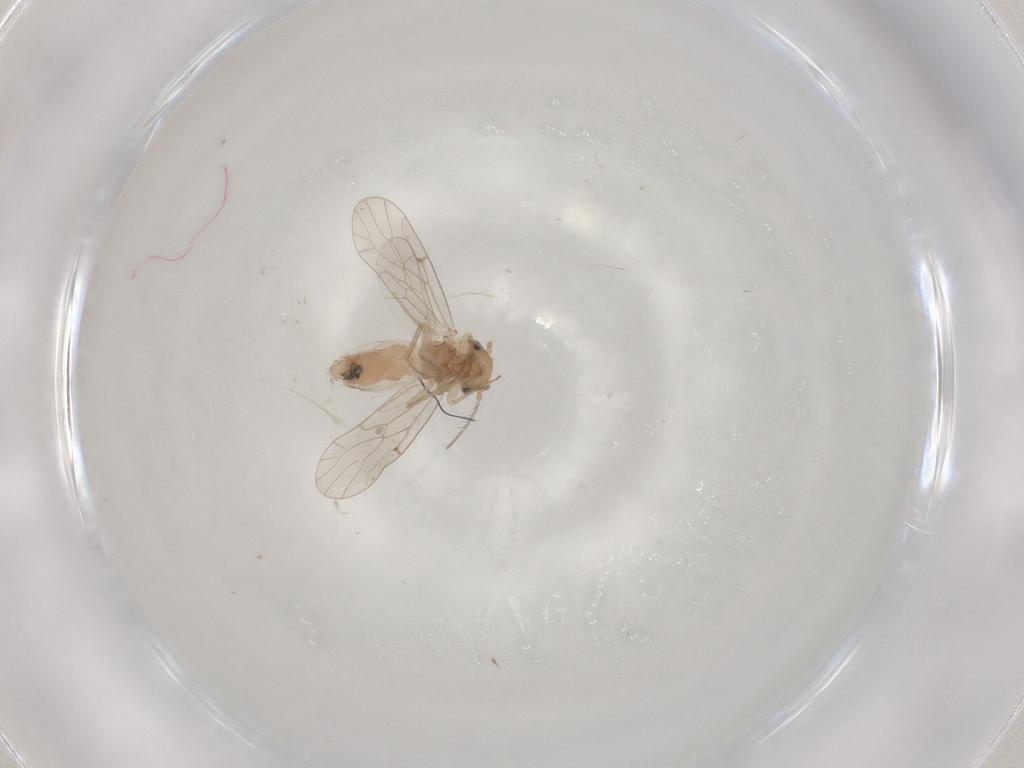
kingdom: Animalia
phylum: Arthropoda
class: Insecta
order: Psocodea
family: Ectopsocidae
